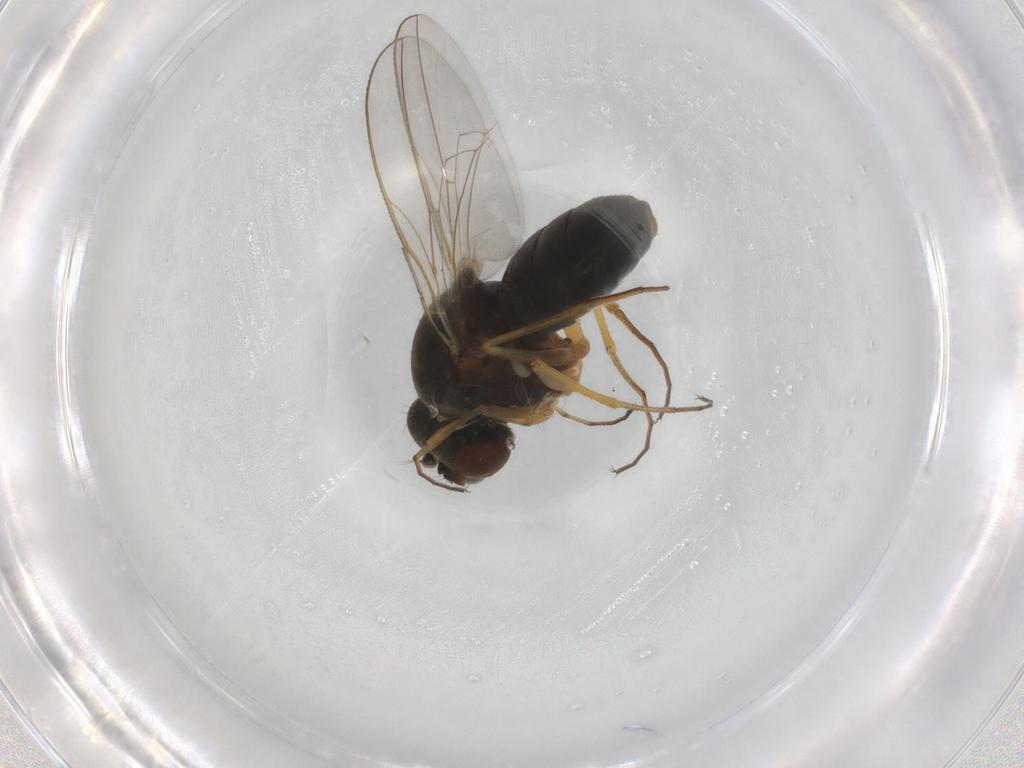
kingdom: Animalia
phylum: Arthropoda
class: Insecta
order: Diptera
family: Ephydridae
